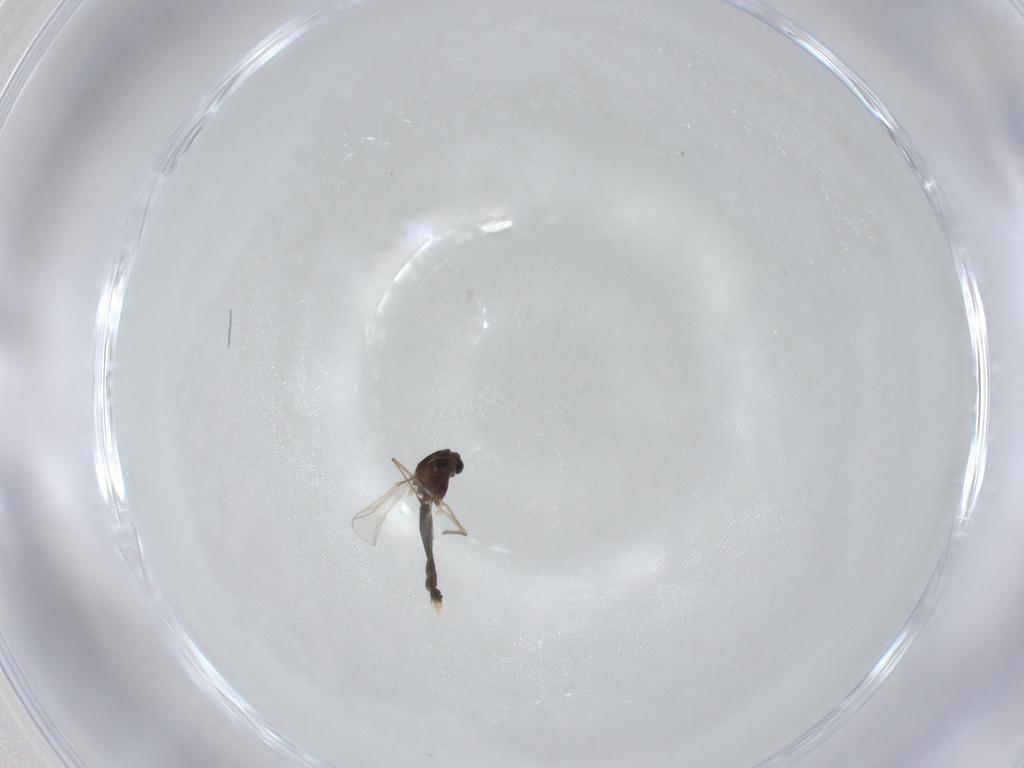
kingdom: Animalia
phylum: Arthropoda
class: Insecta
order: Diptera
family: Chironomidae
